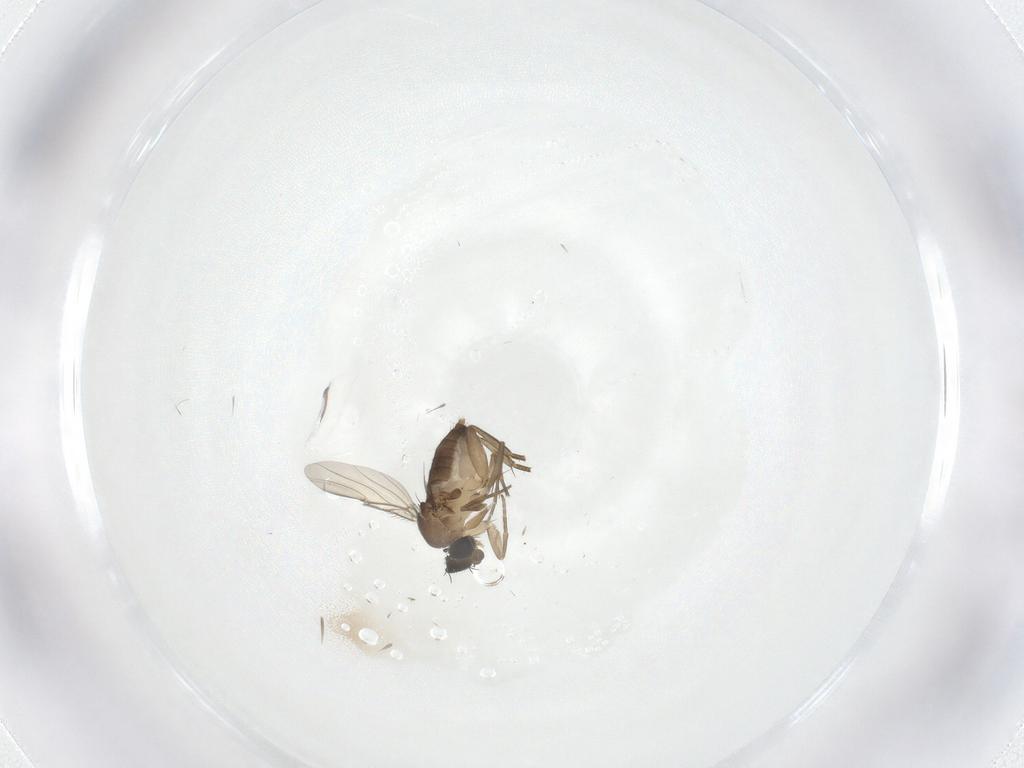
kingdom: Animalia
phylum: Arthropoda
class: Insecta
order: Diptera
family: Phoridae
